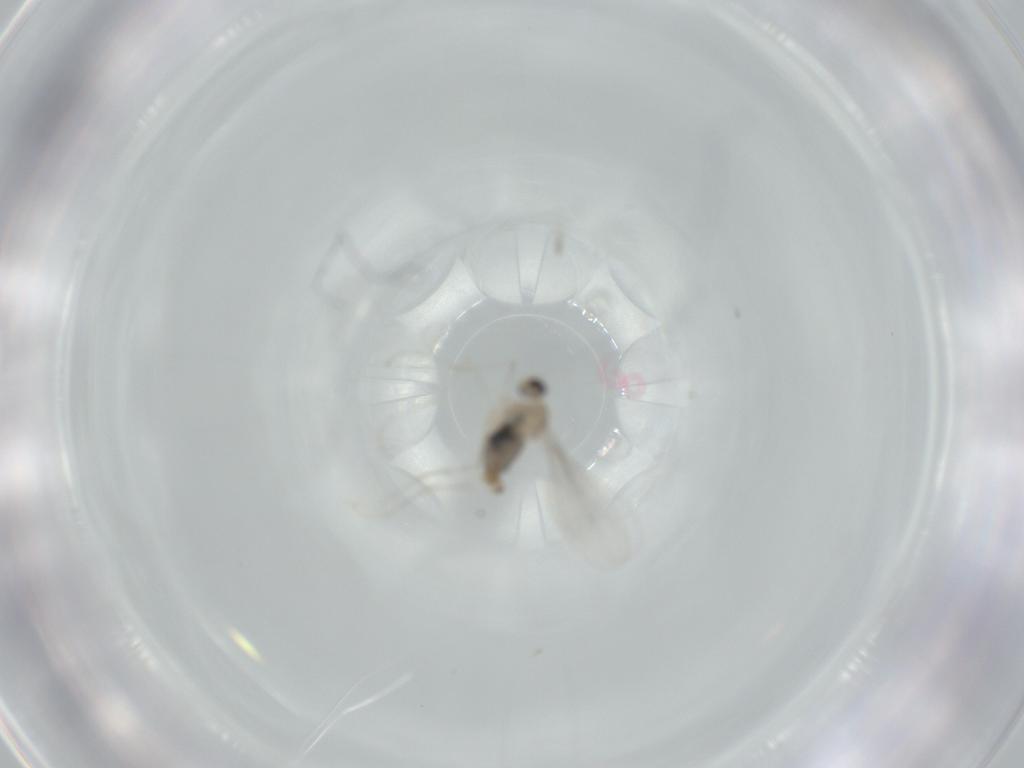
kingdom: Animalia
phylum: Arthropoda
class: Insecta
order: Diptera
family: Cecidomyiidae
